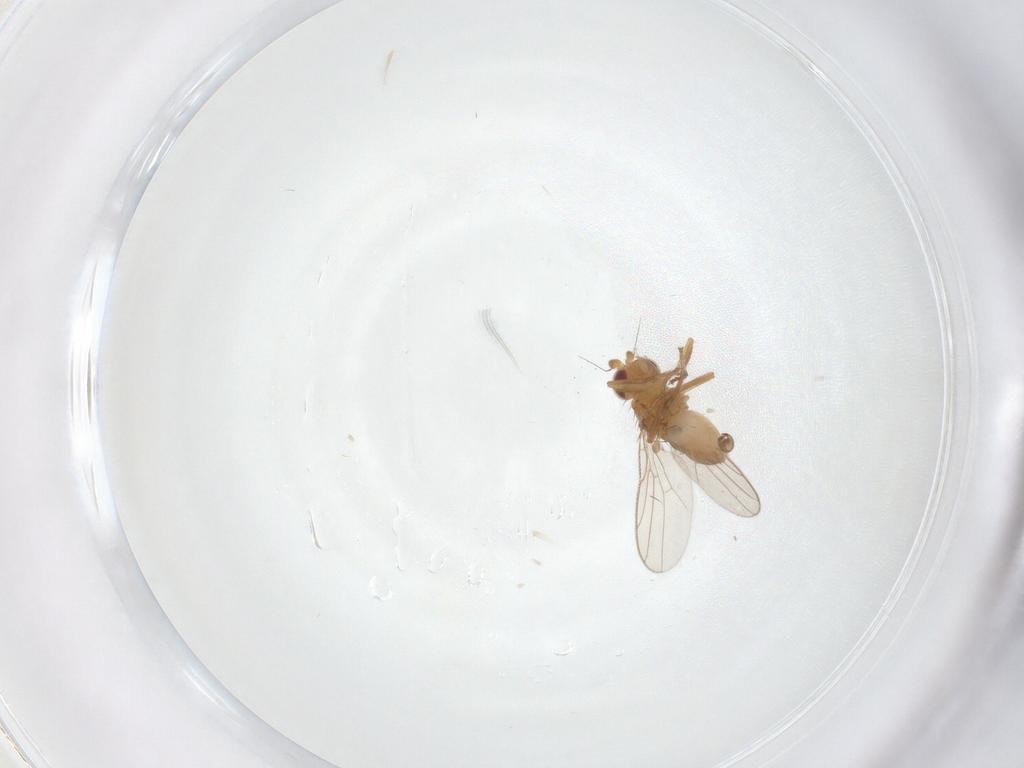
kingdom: Animalia
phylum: Arthropoda
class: Insecta
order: Diptera
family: Chloropidae
